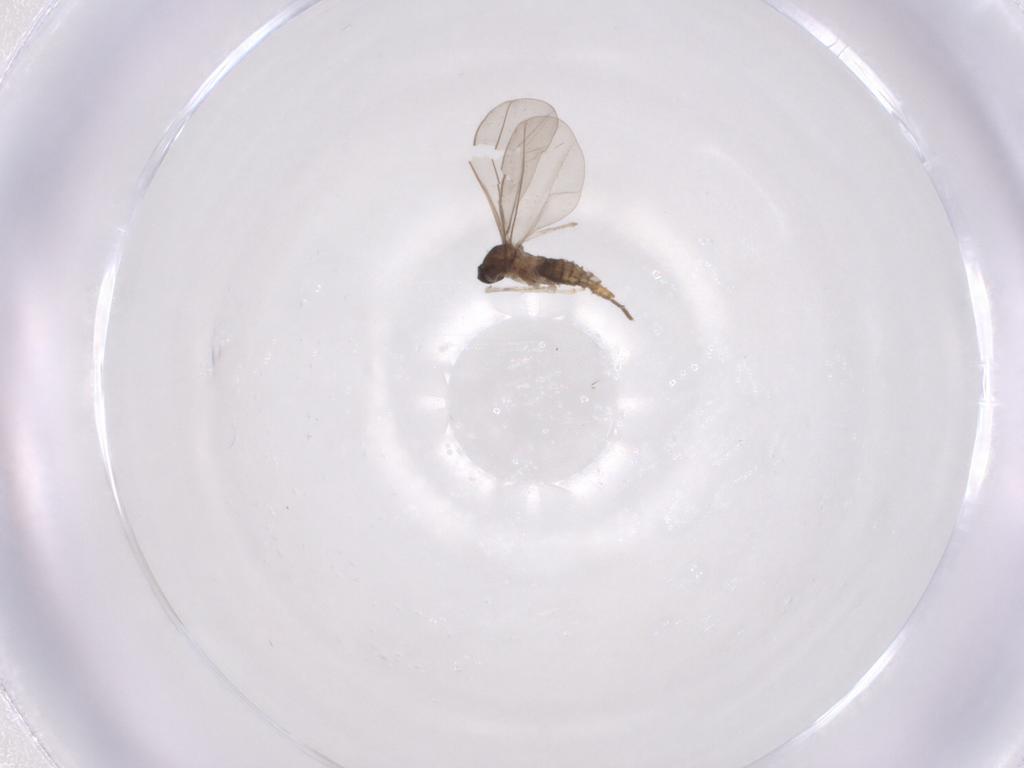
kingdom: Animalia
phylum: Arthropoda
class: Insecta
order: Diptera
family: Cecidomyiidae
